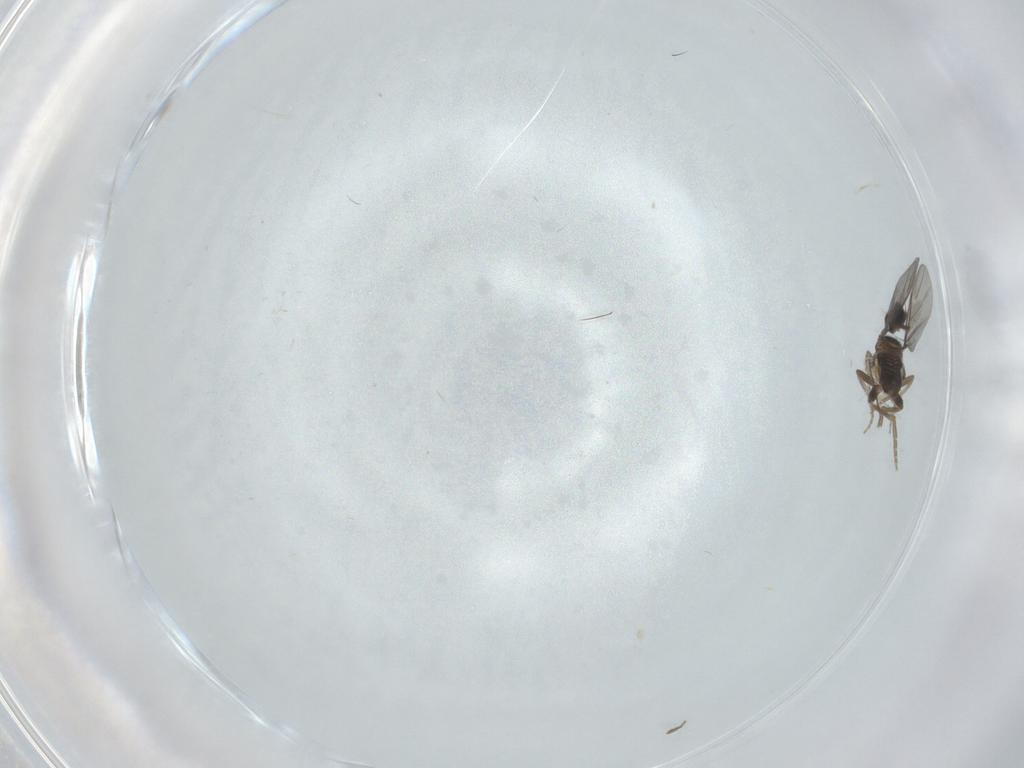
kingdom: Animalia
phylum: Arthropoda
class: Insecta
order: Diptera
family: Chironomidae
